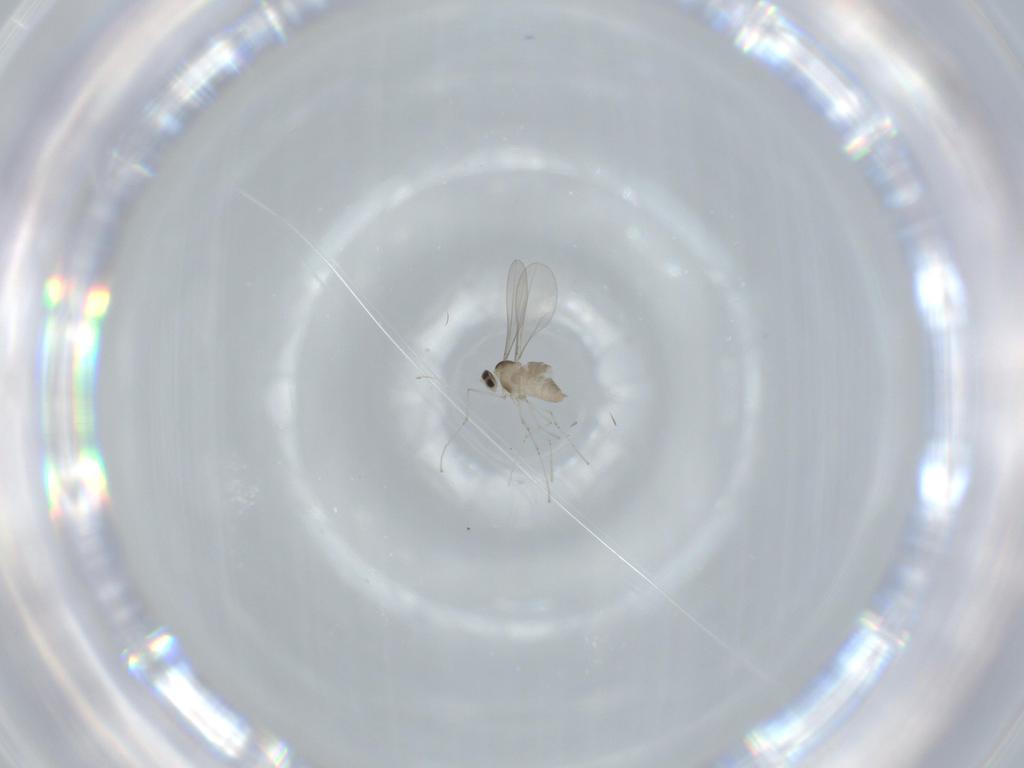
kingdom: Animalia
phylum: Arthropoda
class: Insecta
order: Diptera
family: Cecidomyiidae
